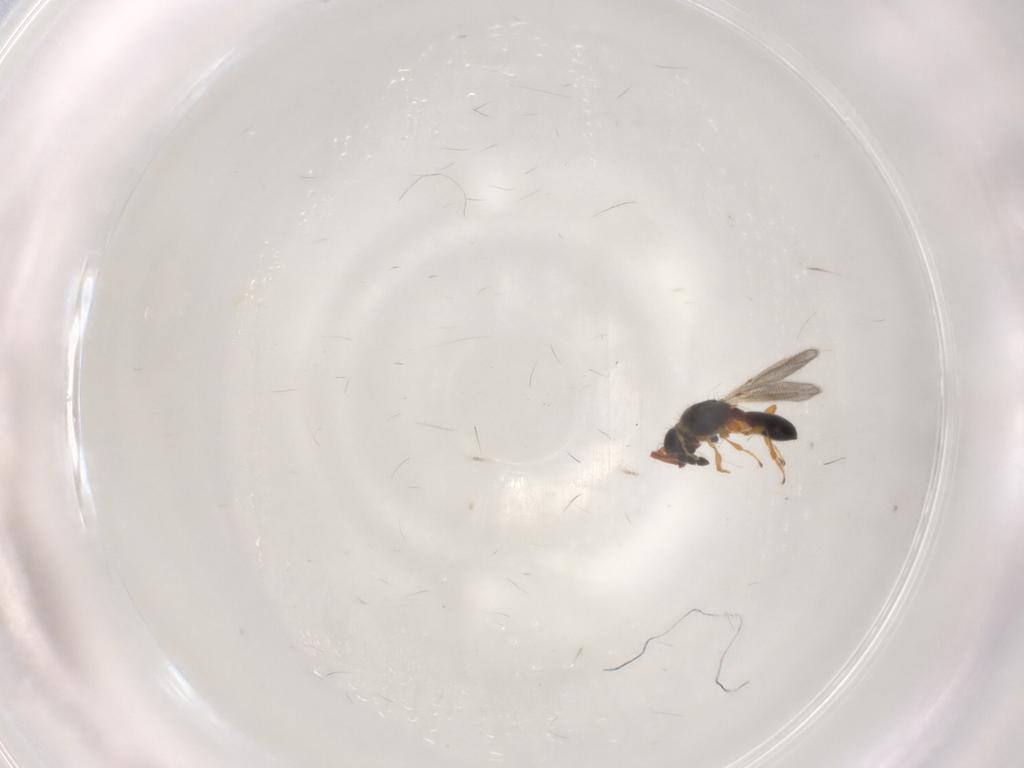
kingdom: Animalia
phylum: Arthropoda
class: Insecta
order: Hymenoptera
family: Diapriidae
